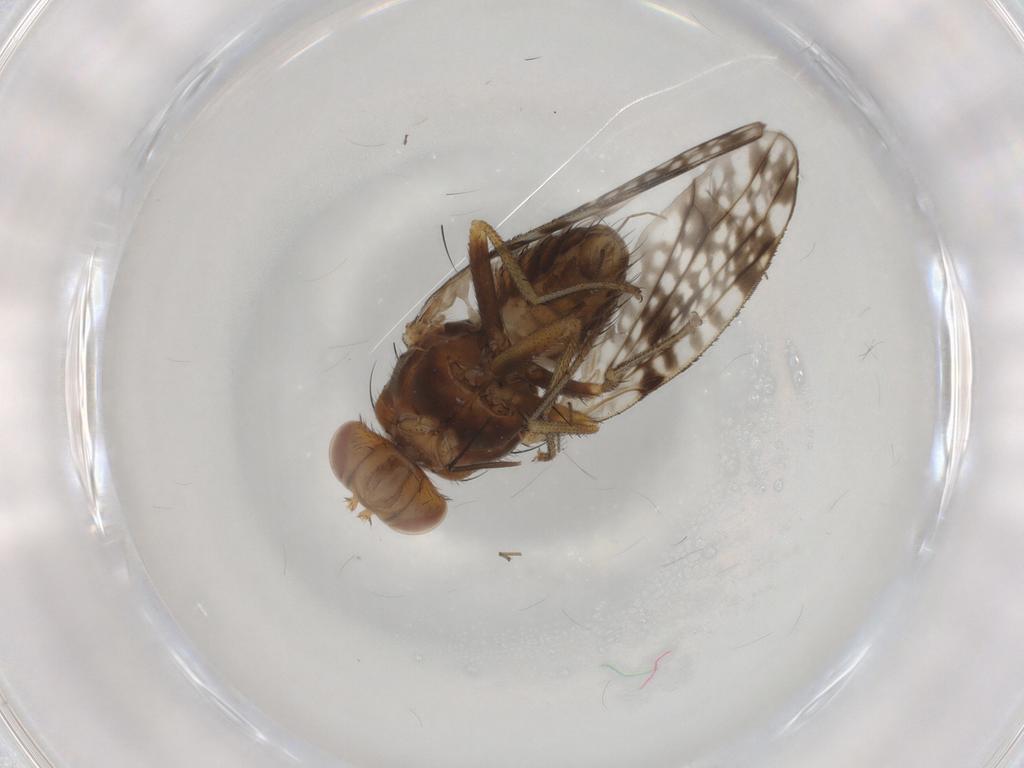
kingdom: Animalia
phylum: Arthropoda
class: Insecta
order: Diptera
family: Lauxaniidae
